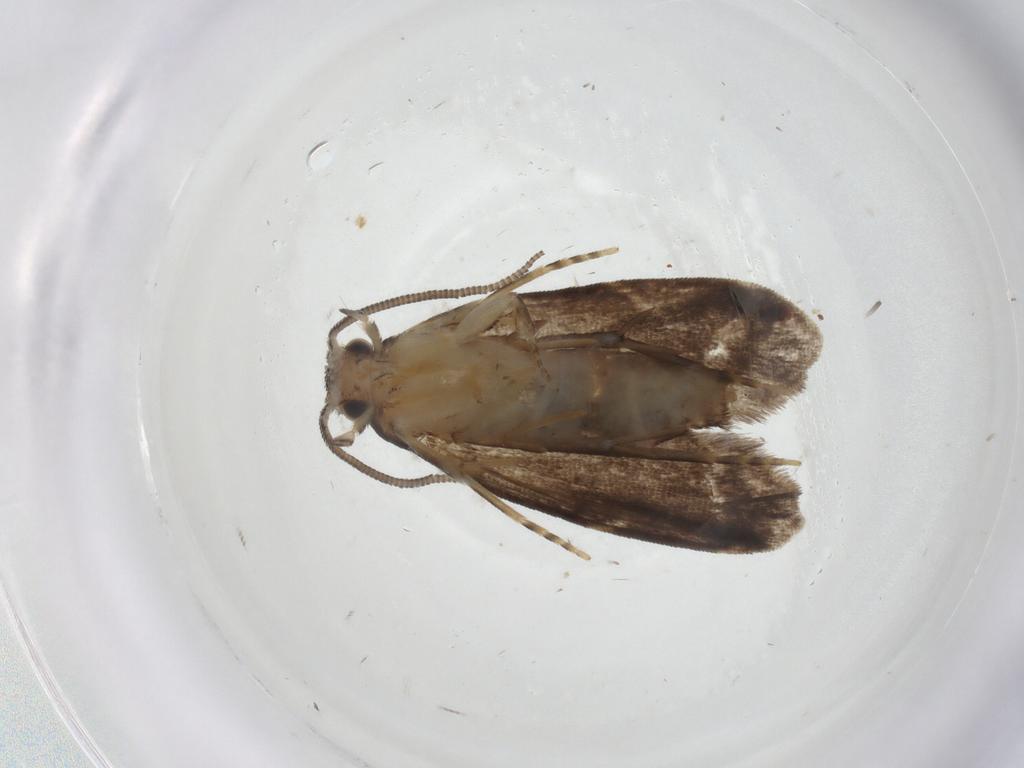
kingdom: Animalia
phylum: Arthropoda
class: Insecta
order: Lepidoptera
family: Dryadaulidae
